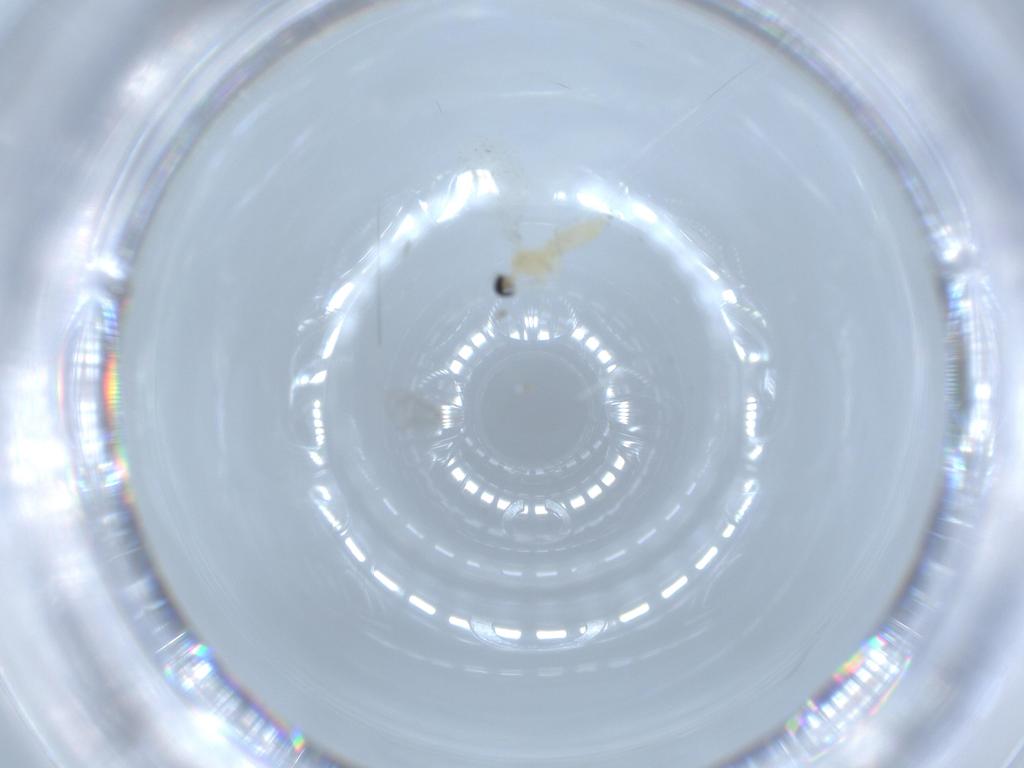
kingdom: Animalia
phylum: Arthropoda
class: Insecta
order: Diptera
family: Cecidomyiidae
